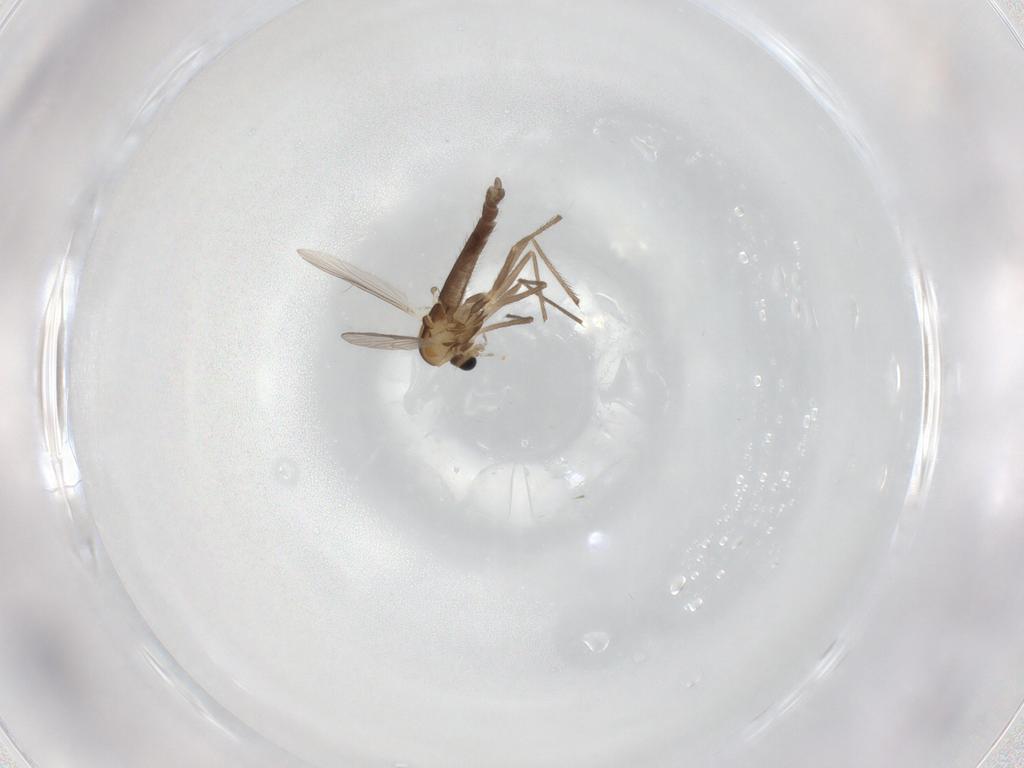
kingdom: Animalia
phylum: Arthropoda
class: Insecta
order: Diptera
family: Chironomidae
